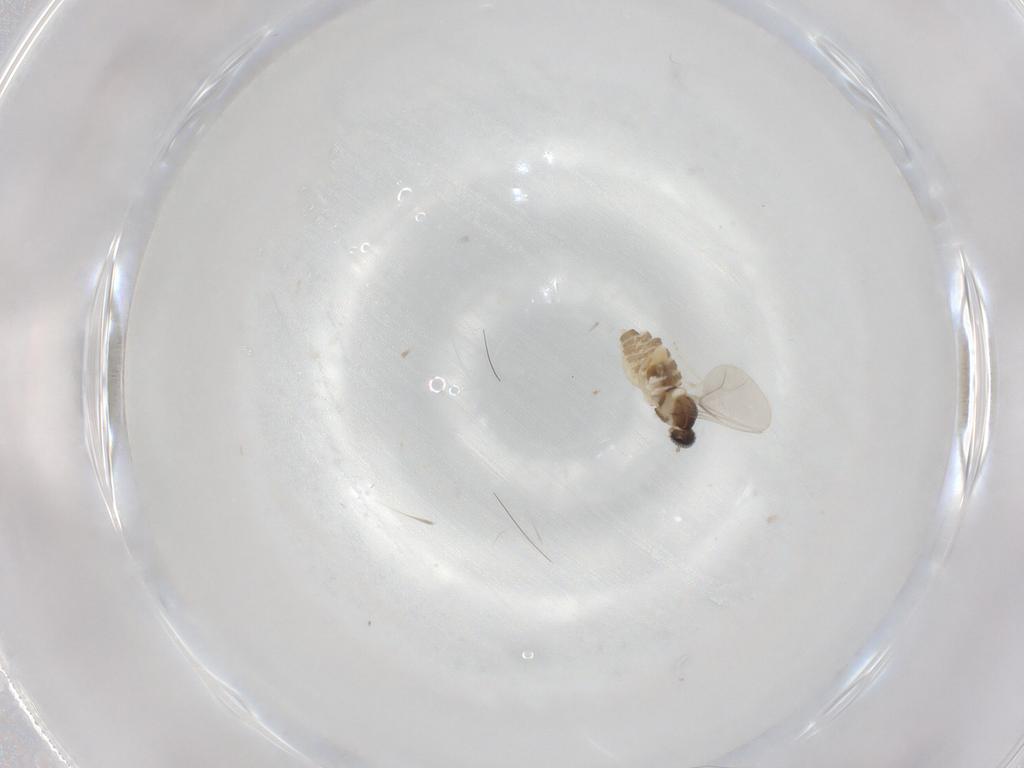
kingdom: Animalia
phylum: Arthropoda
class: Insecta
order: Diptera
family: Cecidomyiidae
